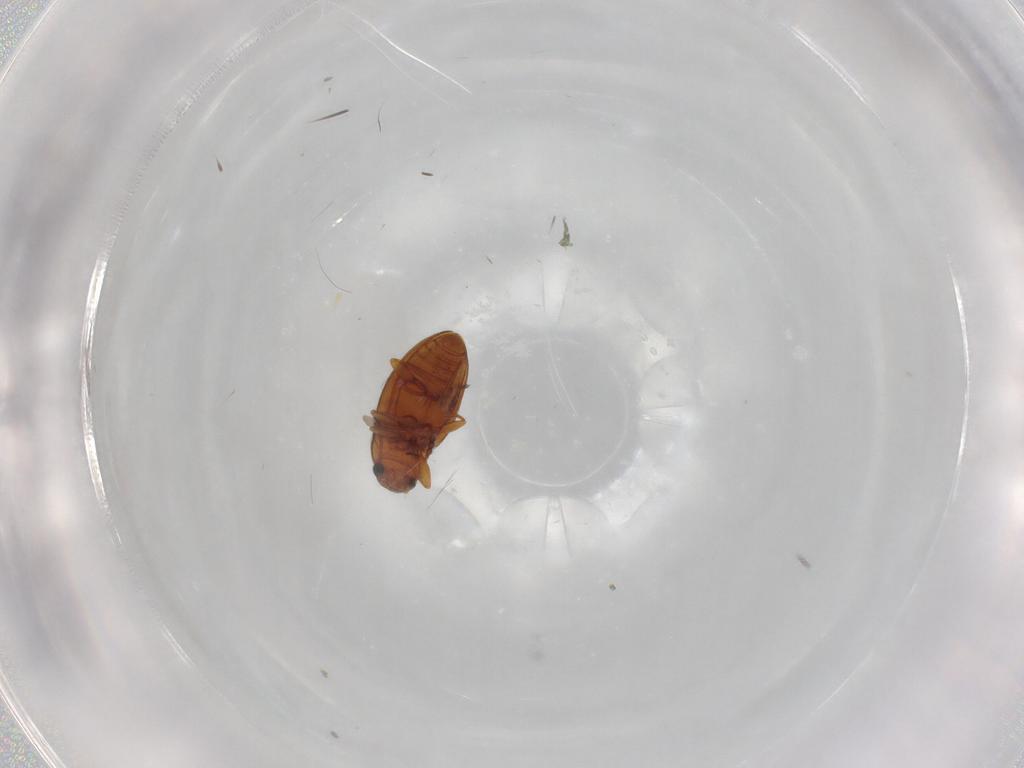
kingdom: Animalia
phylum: Arthropoda
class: Insecta
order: Coleoptera
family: Erotylidae
